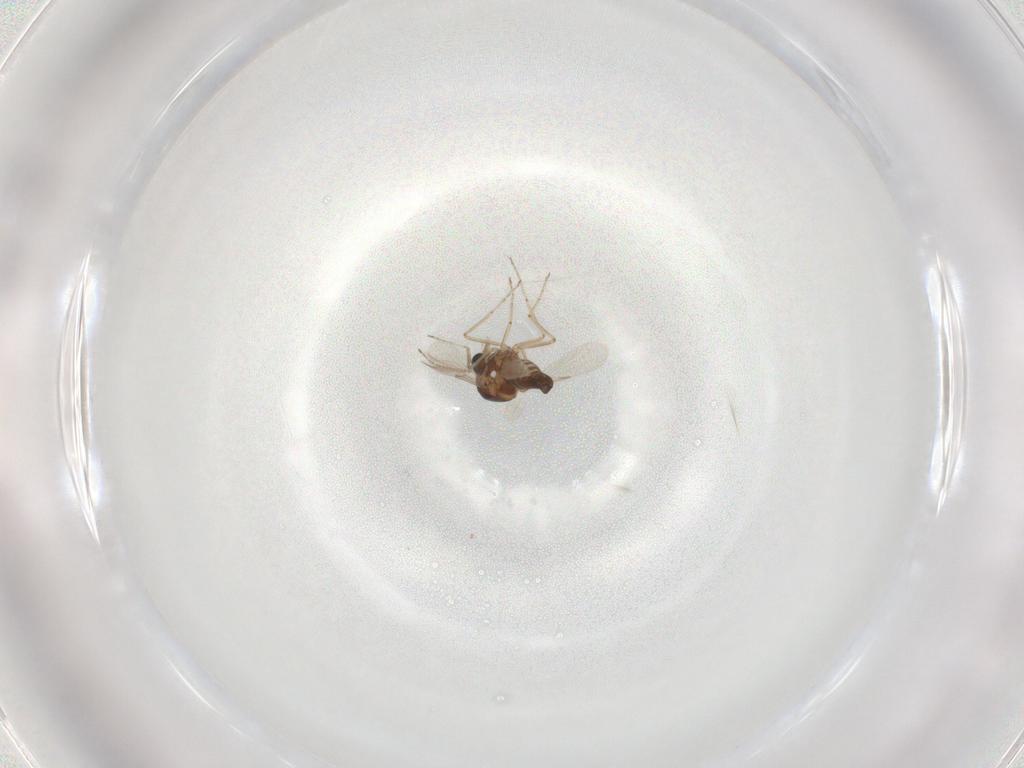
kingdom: Animalia
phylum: Arthropoda
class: Insecta
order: Diptera
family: Ceratopogonidae
